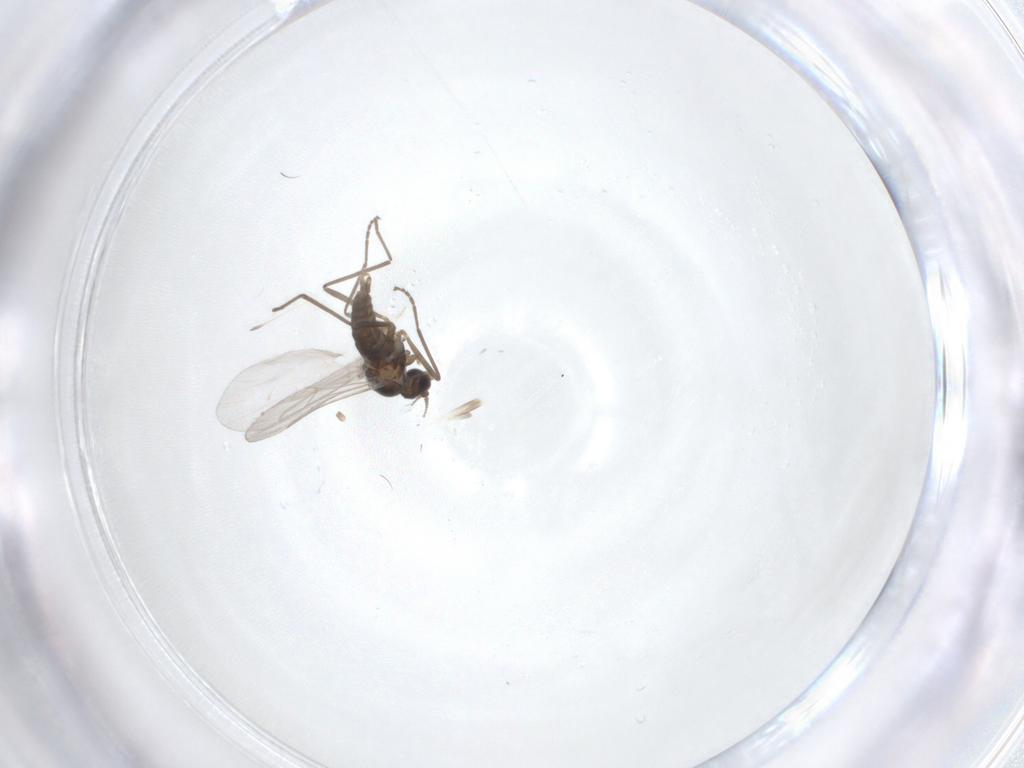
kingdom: Animalia
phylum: Arthropoda
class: Insecta
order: Diptera
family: Cecidomyiidae
